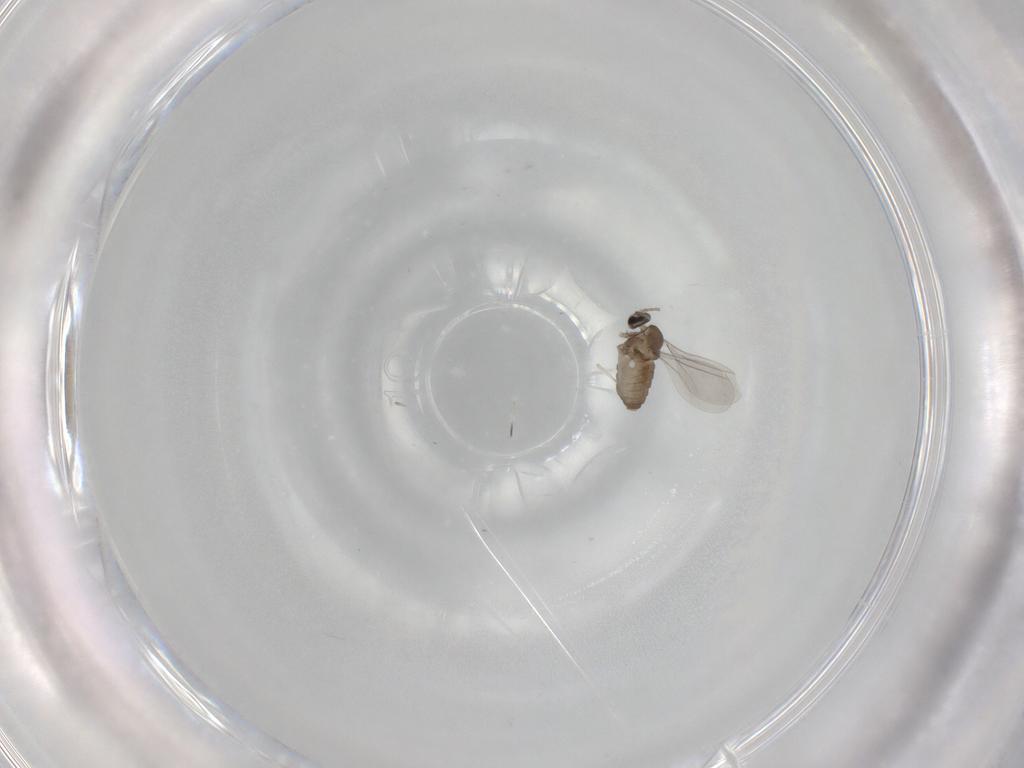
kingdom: Animalia
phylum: Arthropoda
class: Insecta
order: Diptera
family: Cecidomyiidae
